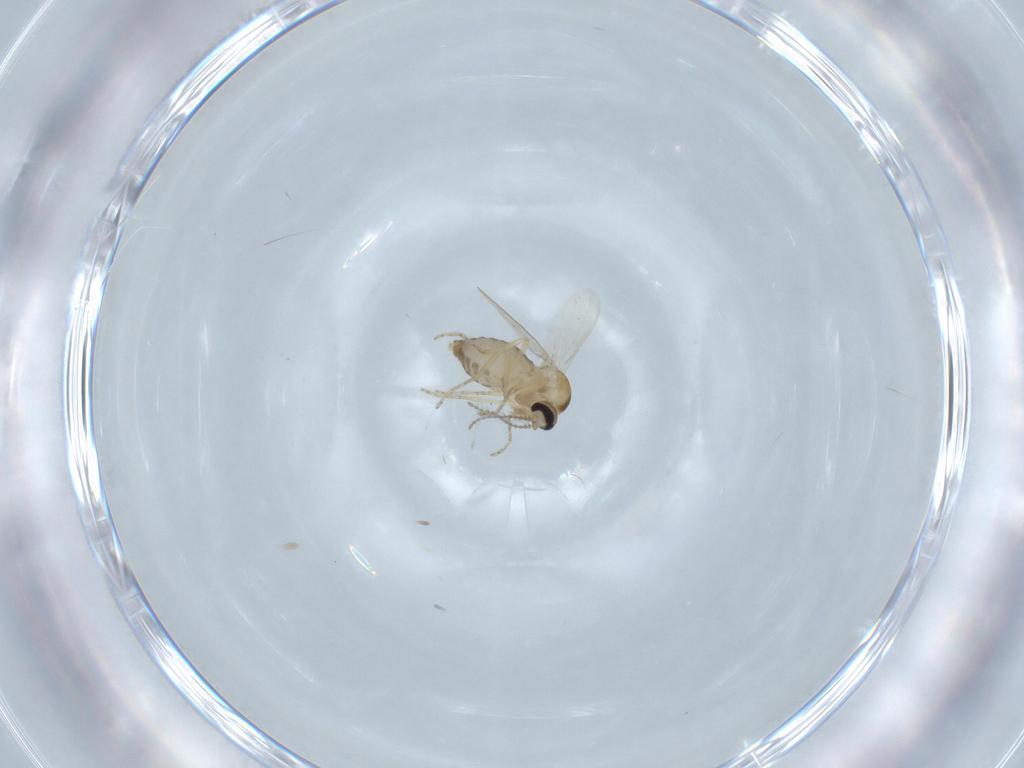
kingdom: Animalia
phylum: Arthropoda
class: Insecta
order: Diptera
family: Ceratopogonidae
